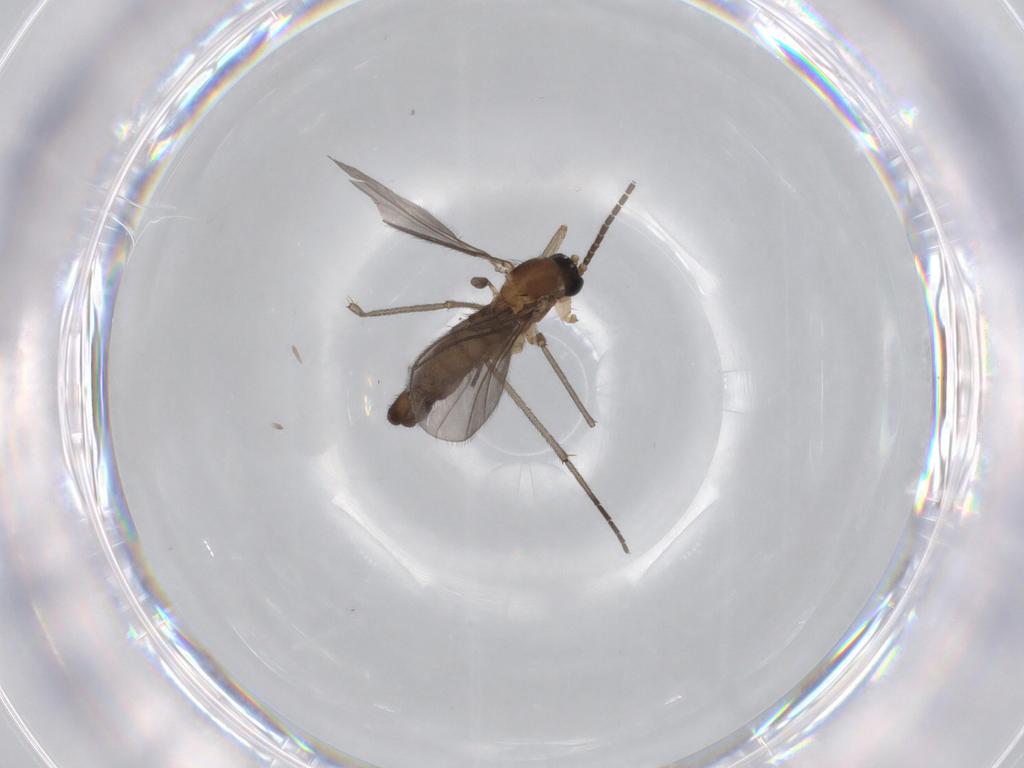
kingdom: Animalia
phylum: Arthropoda
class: Insecta
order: Diptera
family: Sciaridae
